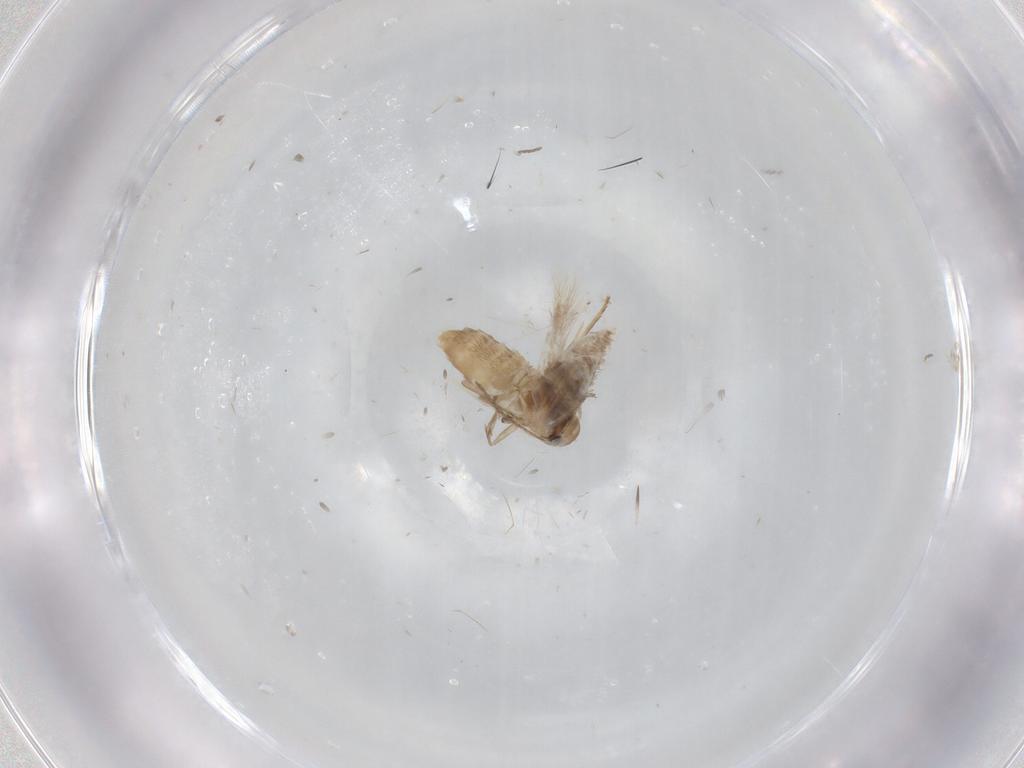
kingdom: Animalia
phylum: Arthropoda
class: Insecta
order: Lepidoptera
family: Nymphalidae
